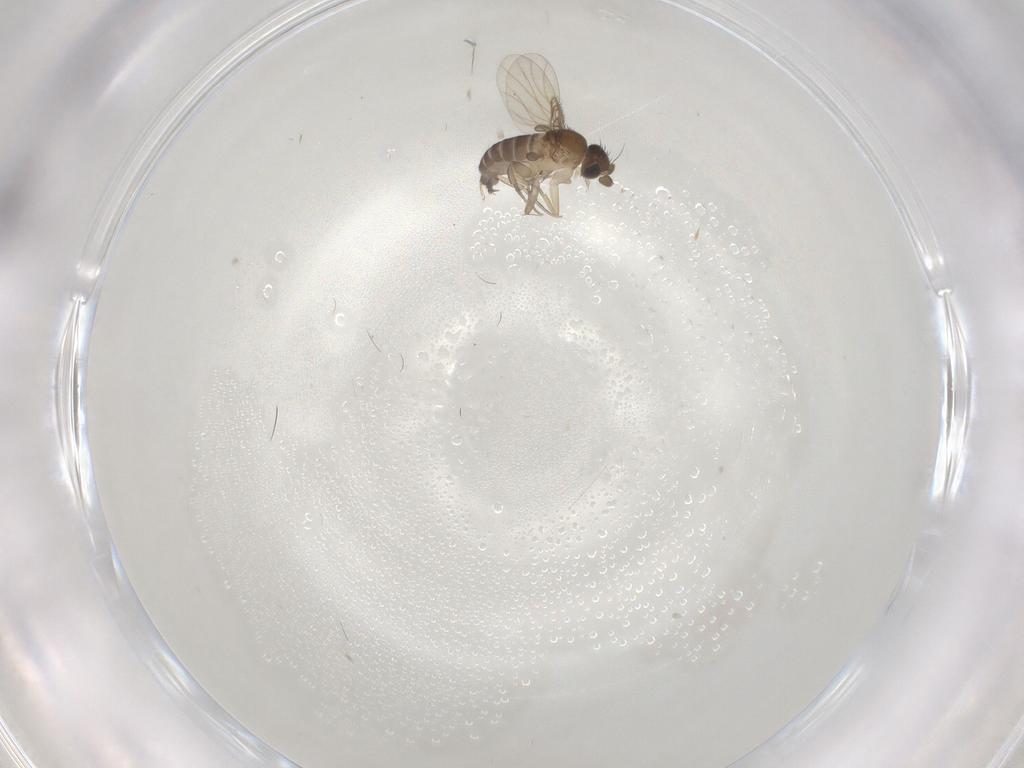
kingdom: Animalia
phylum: Arthropoda
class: Insecta
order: Diptera
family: Phoridae
